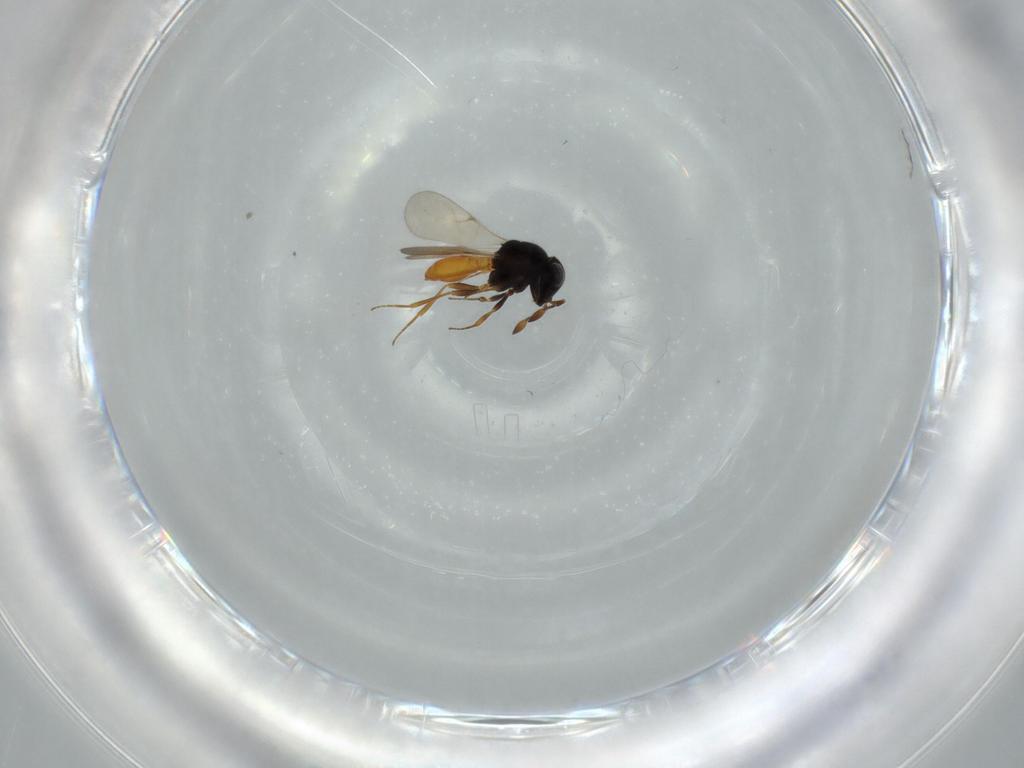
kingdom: Animalia
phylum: Arthropoda
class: Insecta
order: Hymenoptera
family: Scelionidae
